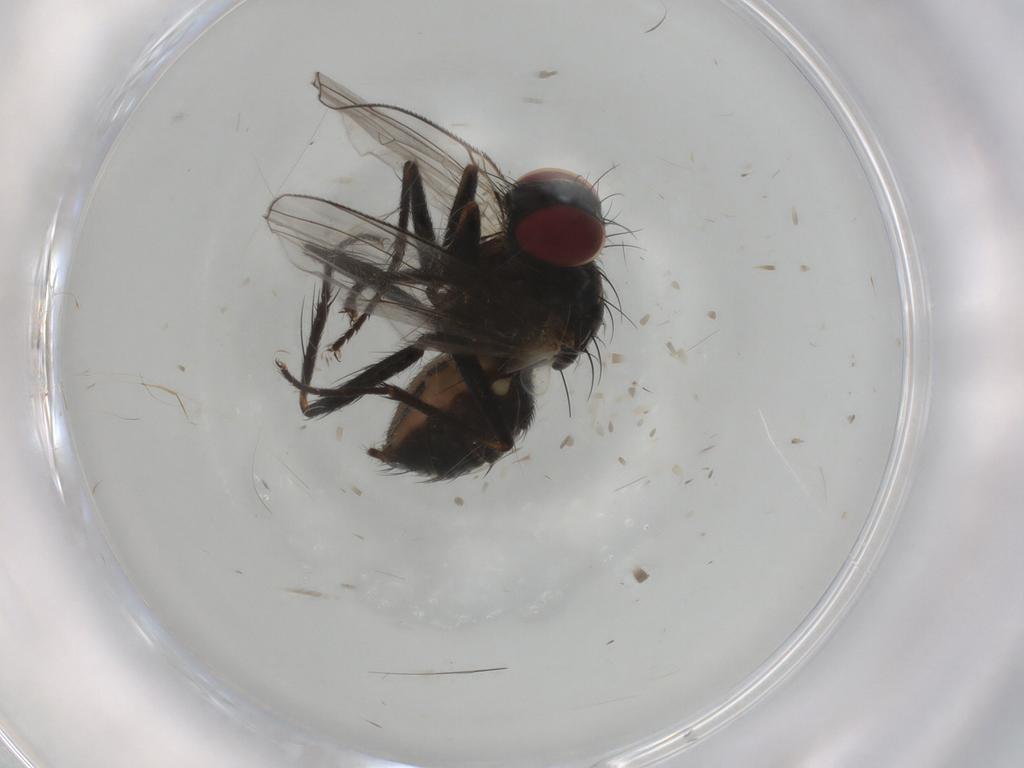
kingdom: Animalia
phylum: Arthropoda
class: Insecta
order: Diptera
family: Muscidae
